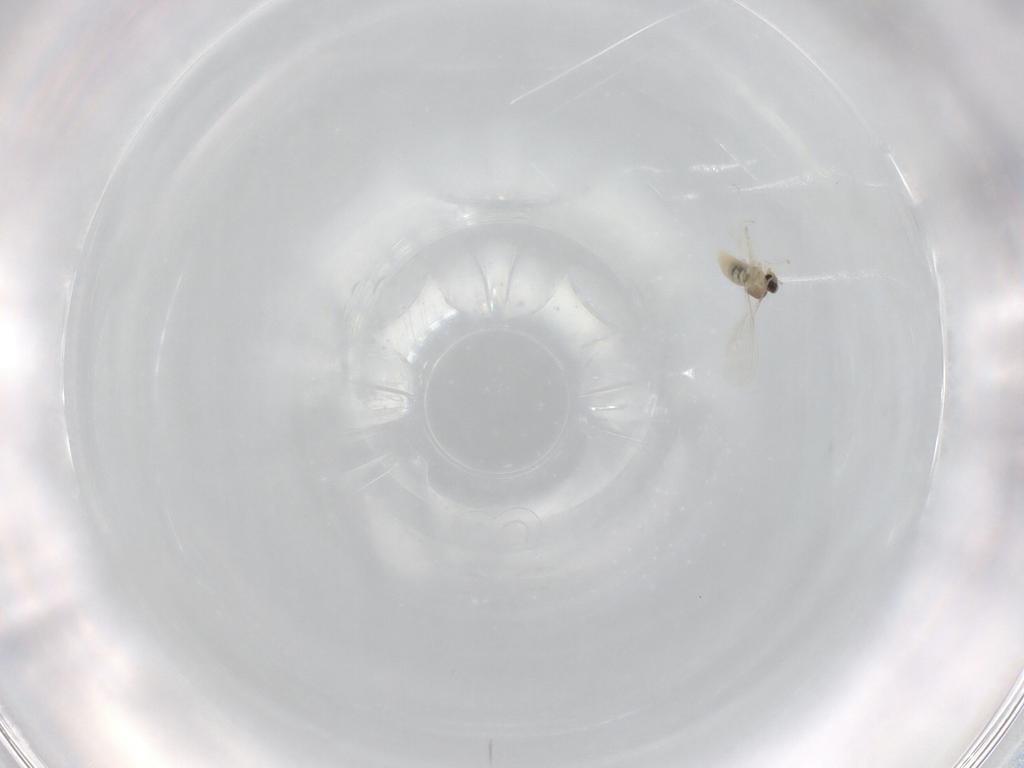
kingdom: Animalia
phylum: Arthropoda
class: Insecta
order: Diptera
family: Cecidomyiidae
